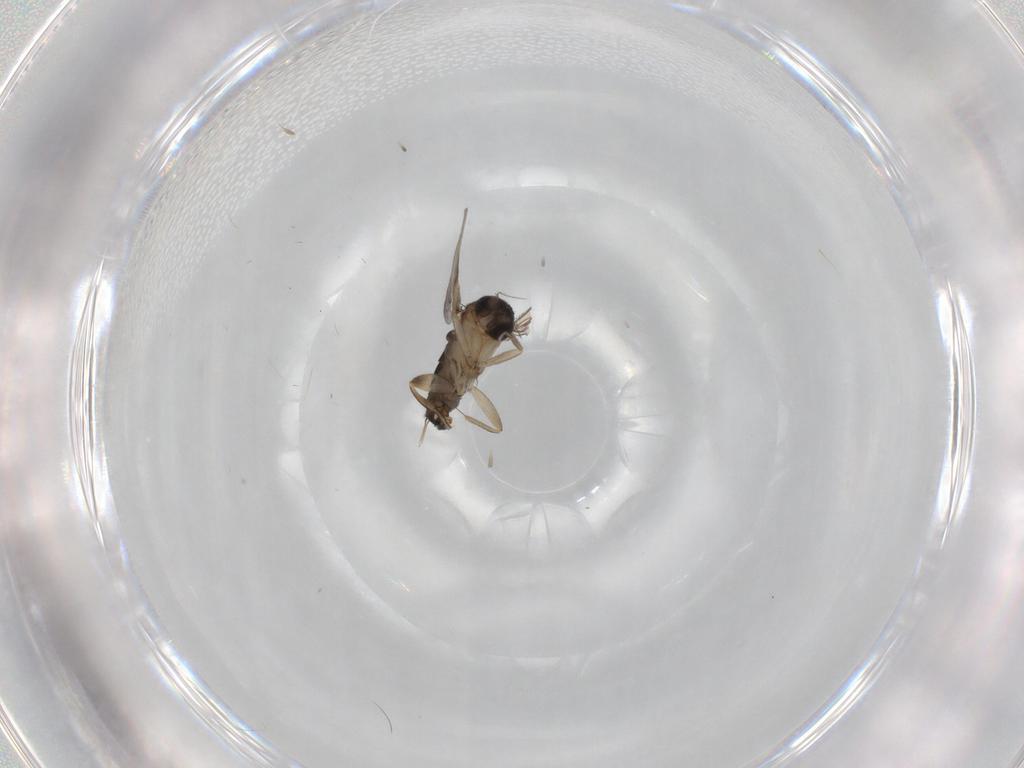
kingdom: Animalia
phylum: Arthropoda
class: Insecta
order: Diptera
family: Phoridae
